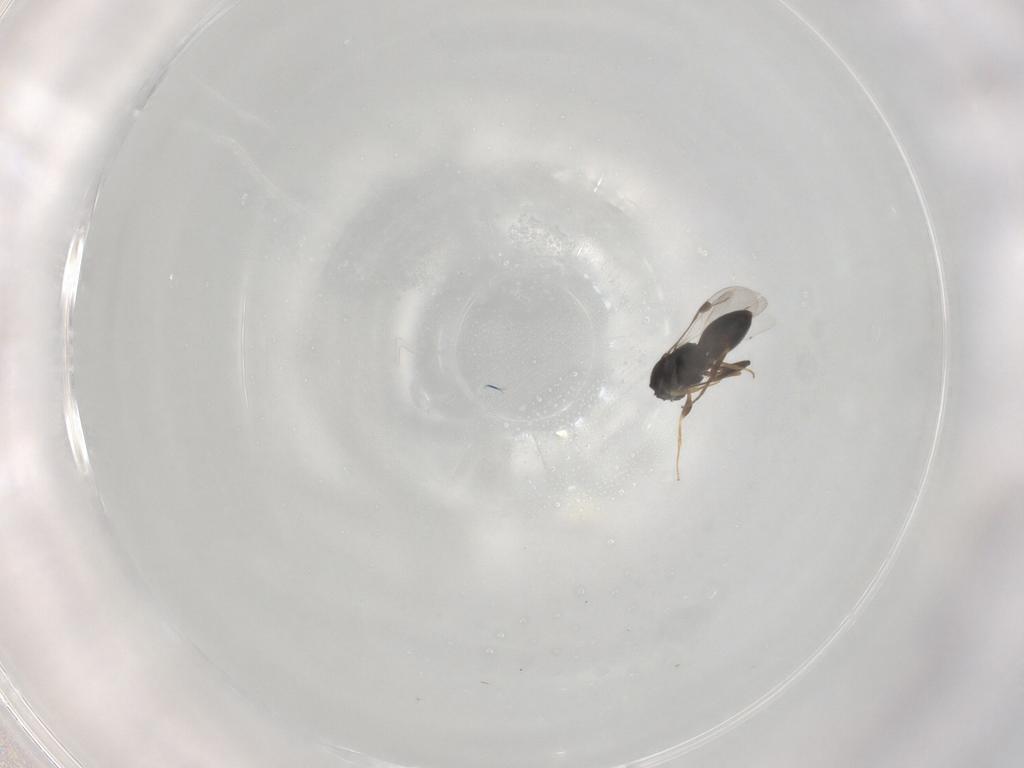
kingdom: Animalia
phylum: Arthropoda
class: Insecta
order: Hymenoptera
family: Megaspilidae
